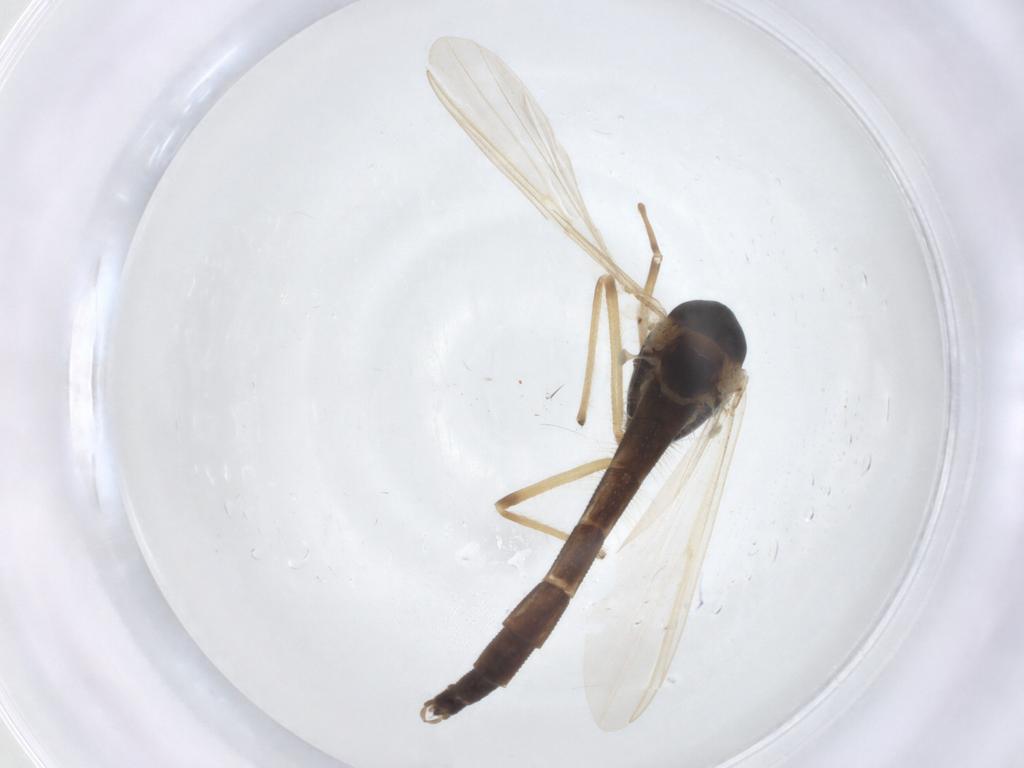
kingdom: Animalia
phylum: Arthropoda
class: Insecta
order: Diptera
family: Chironomidae
